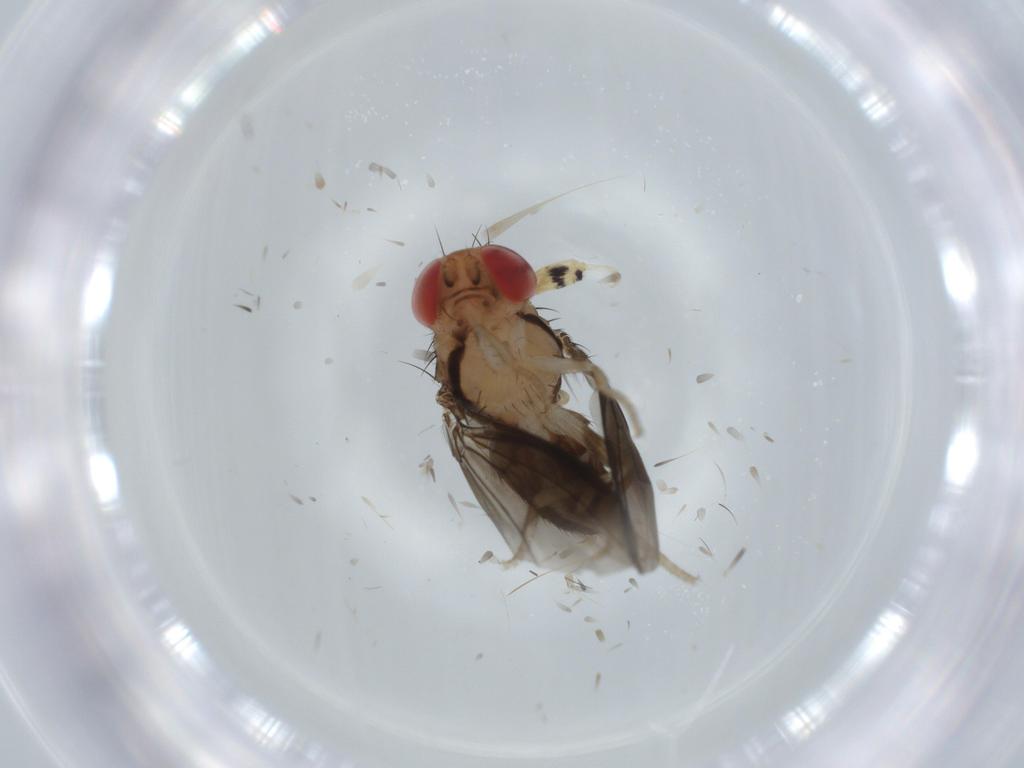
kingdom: Animalia
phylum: Arthropoda
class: Insecta
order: Diptera
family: Drosophilidae
